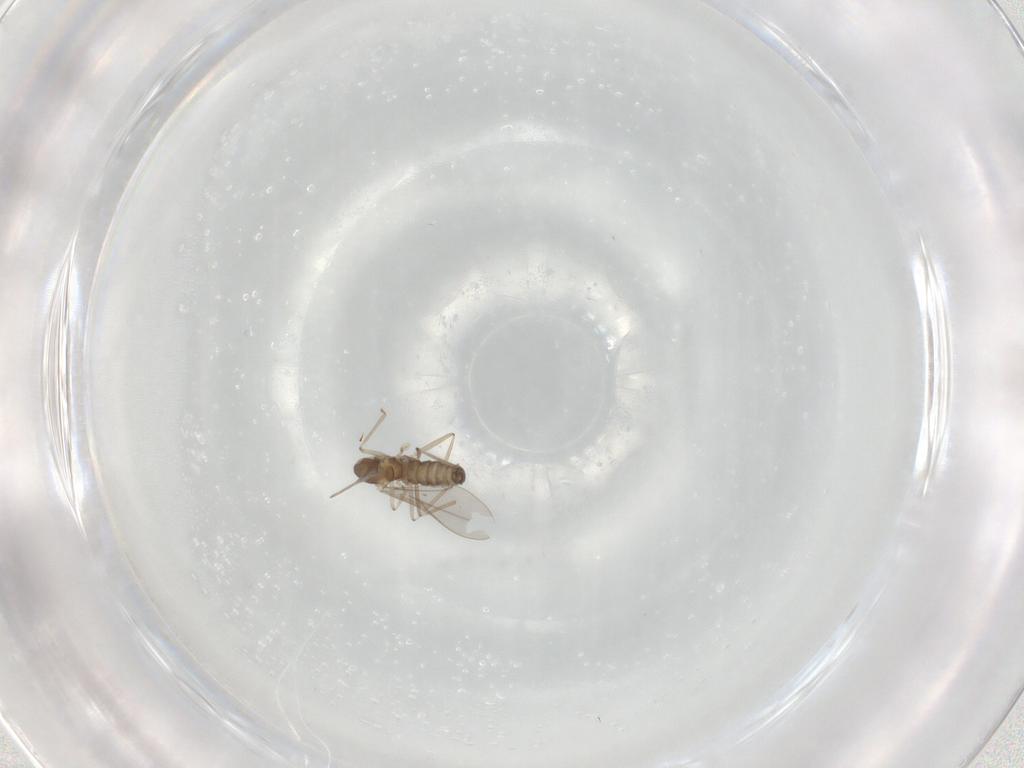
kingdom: Animalia
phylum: Arthropoda
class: Insecta
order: Diptera
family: Cecidomyiidae
